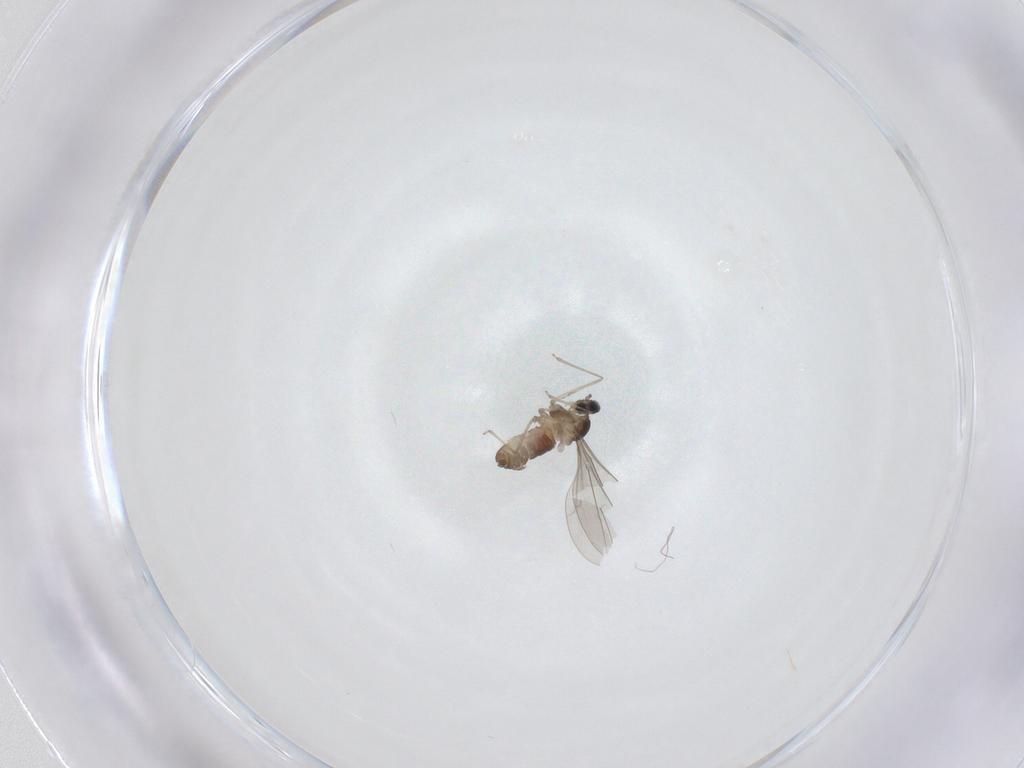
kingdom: Animalia
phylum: Arthropoda
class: Insecta
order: Diptera
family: Cecidomyiidae
